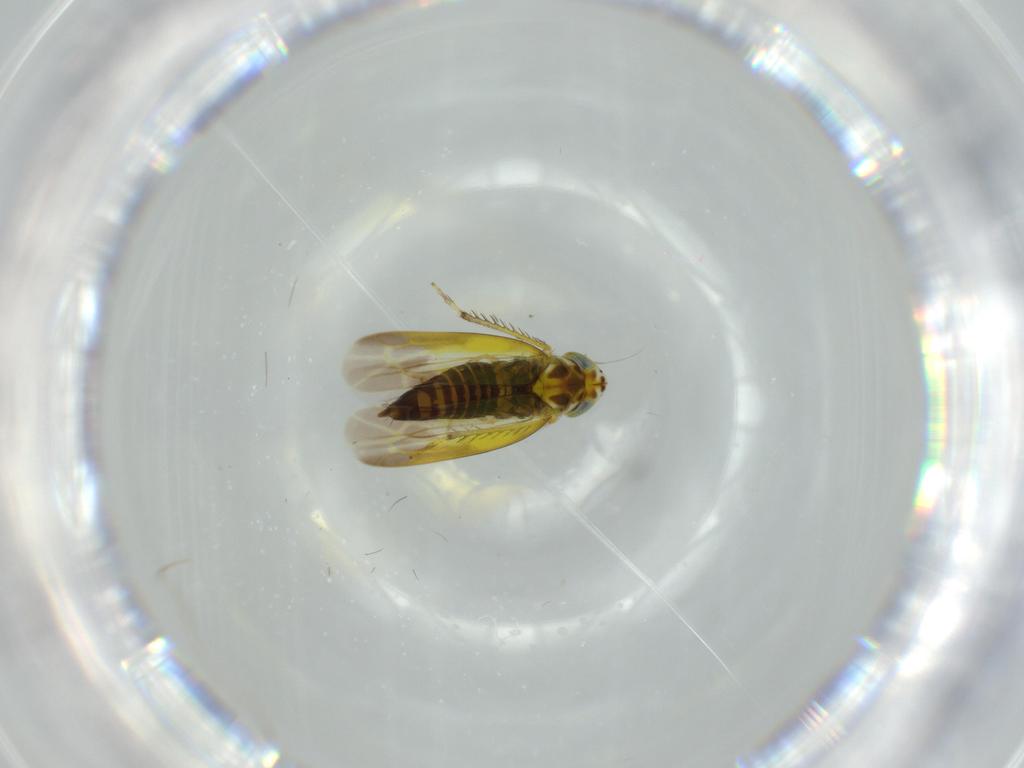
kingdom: Animalia
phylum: Arthropoda
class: Insecta
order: Hemiptera
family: Cicadellidae
